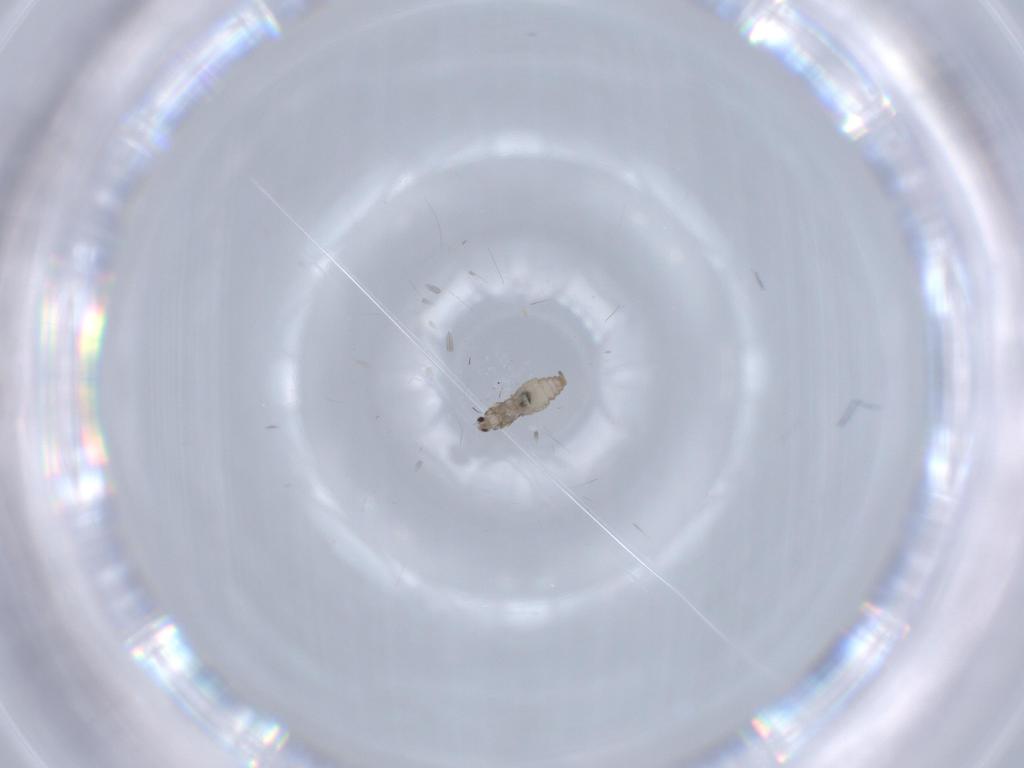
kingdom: Animalia
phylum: Arthropoda
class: Insecta
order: Diptera
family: Cecidomyiidae
